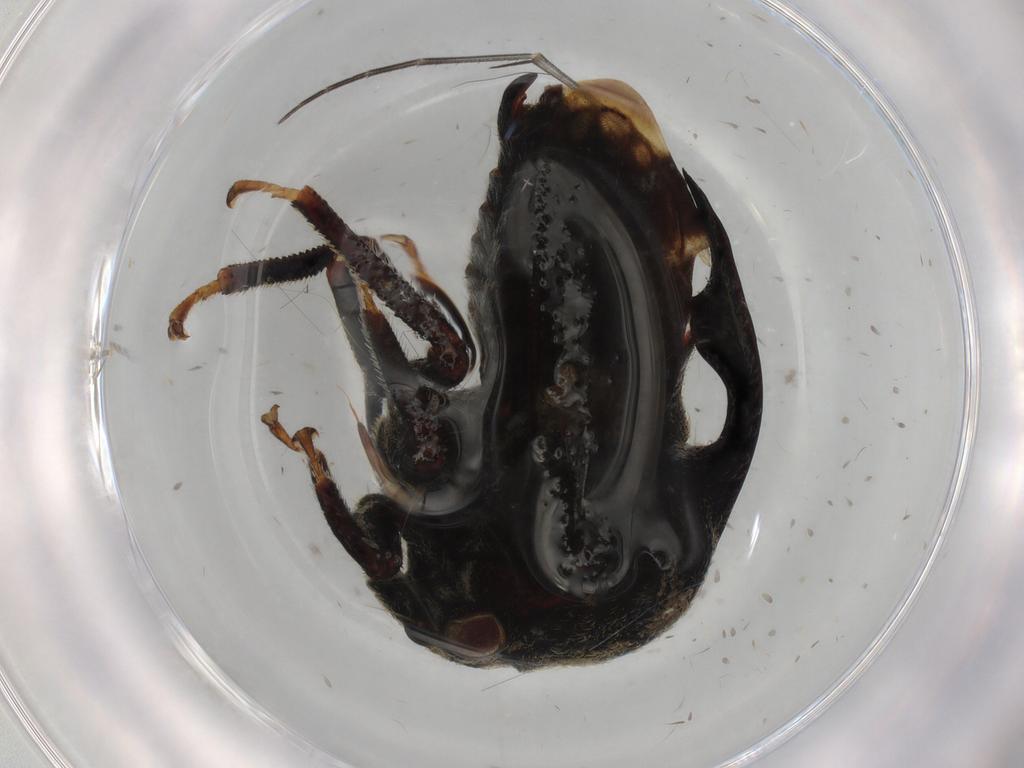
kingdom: Animalia
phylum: Arthropoda
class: Insecta
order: Hemiptera
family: Membracidae
